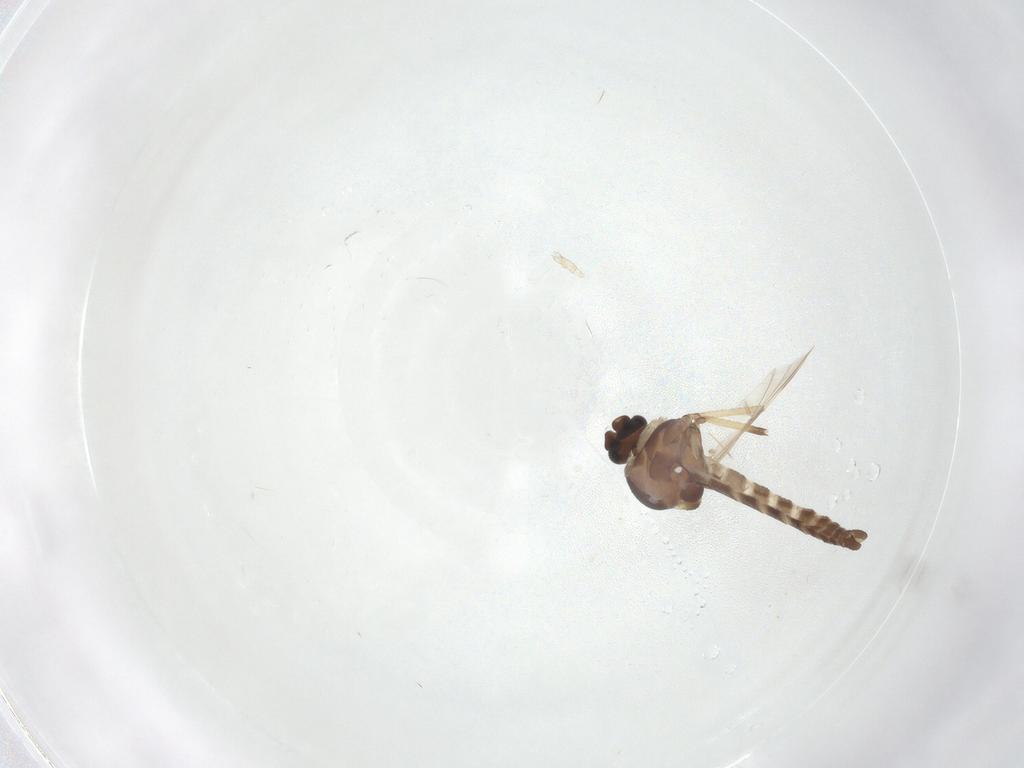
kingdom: Animalia
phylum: Arthropoda
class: Insecta
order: Diptera
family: Ceratopogonidae
